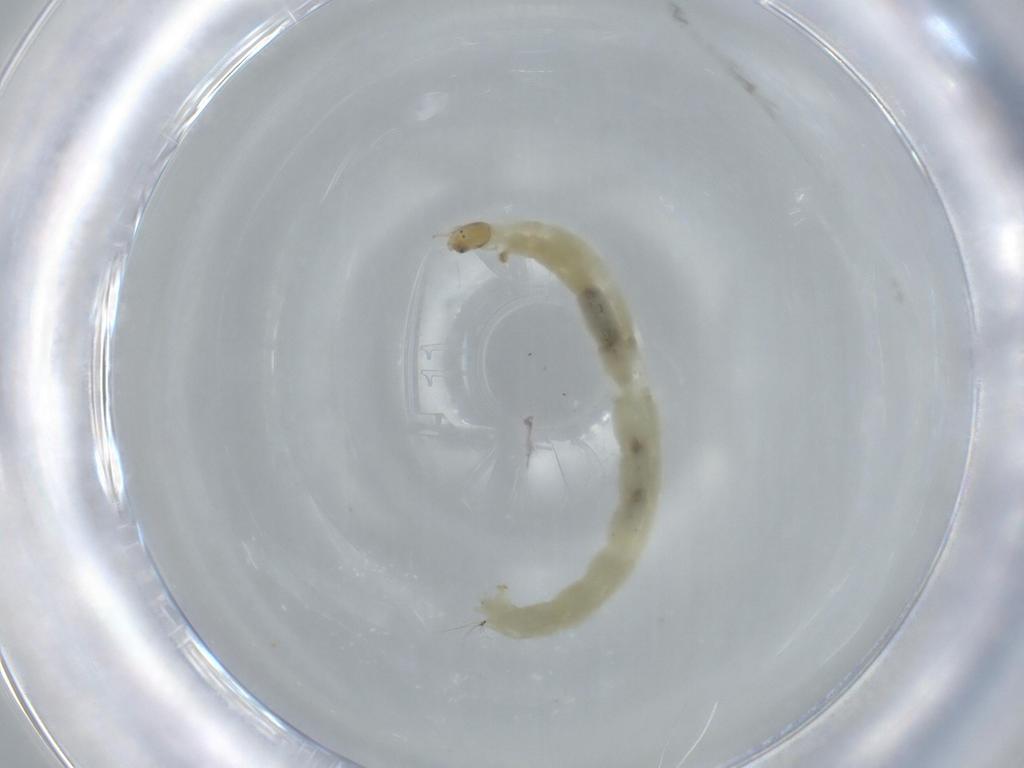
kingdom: Animalia
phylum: Arthropoda
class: Insecta
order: Diptera
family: Chironomidae
